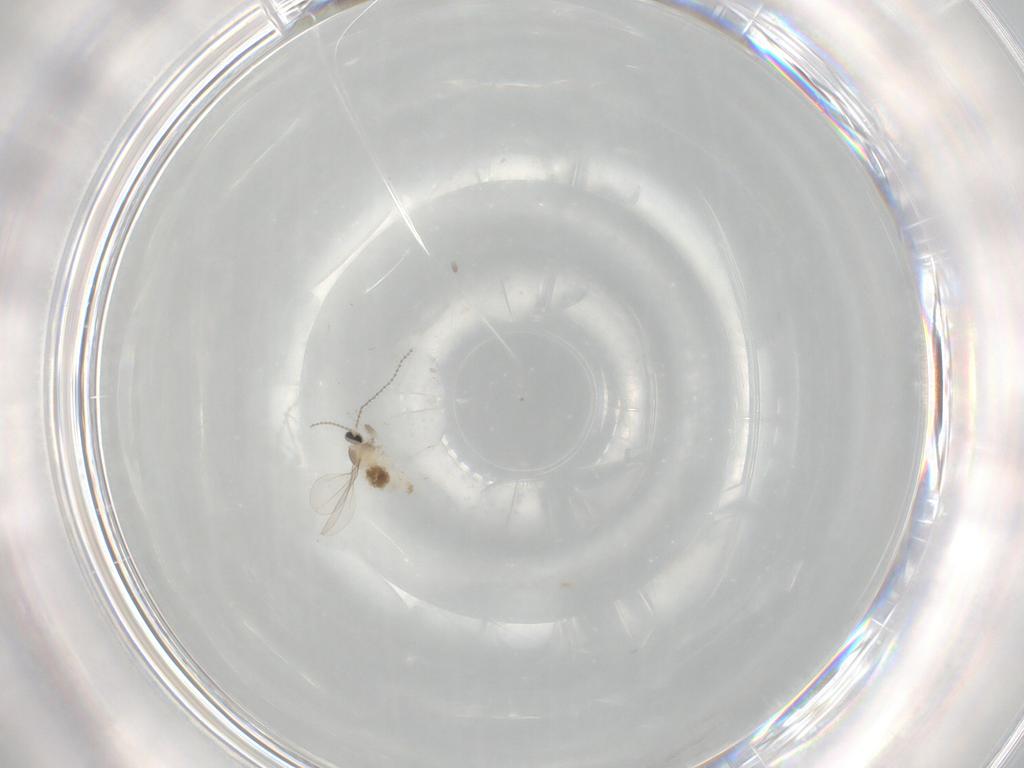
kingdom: Animalia
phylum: Arthropoda
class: Insecta
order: Diptera
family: Cecidomyiidae
